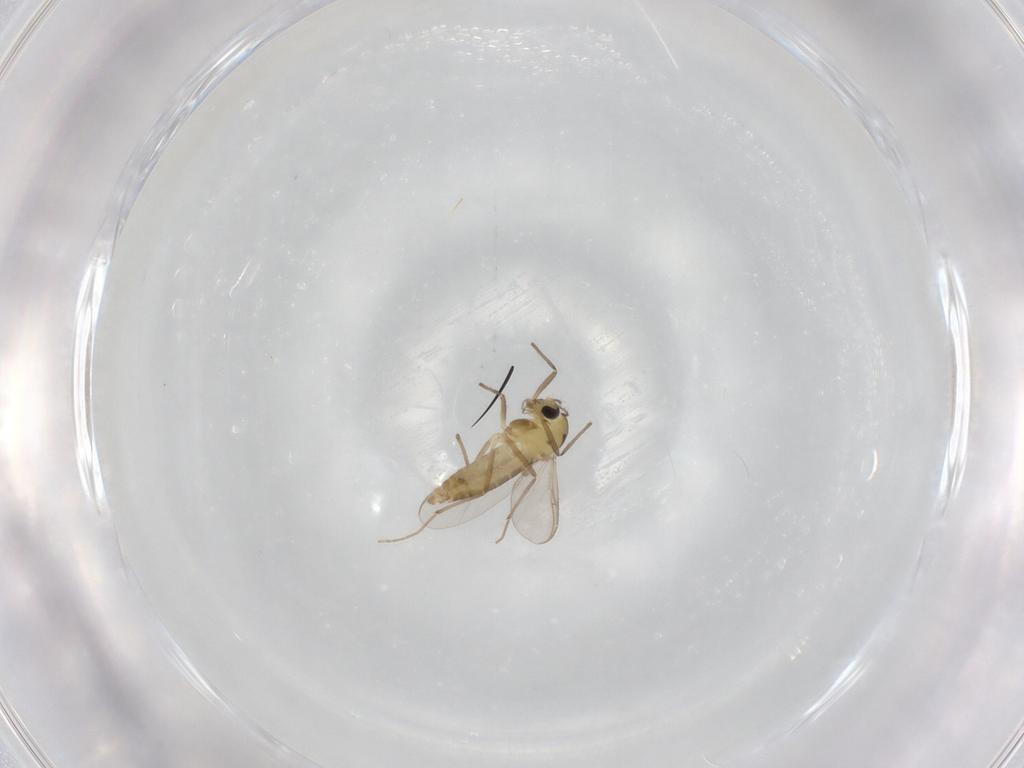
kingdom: Animalia
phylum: Arthropoda
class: Insecta
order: Diptera
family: Chironomidae
